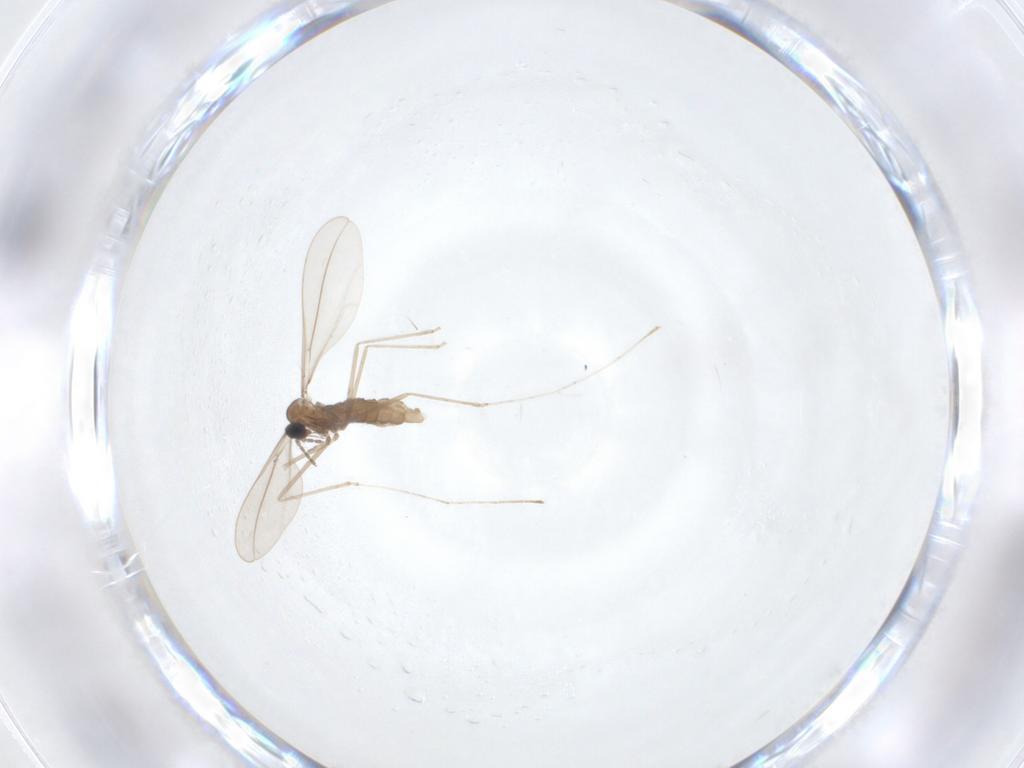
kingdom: Animalia
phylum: Arthropoda
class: Insecta
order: Diptera
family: Cecidomyiidae
